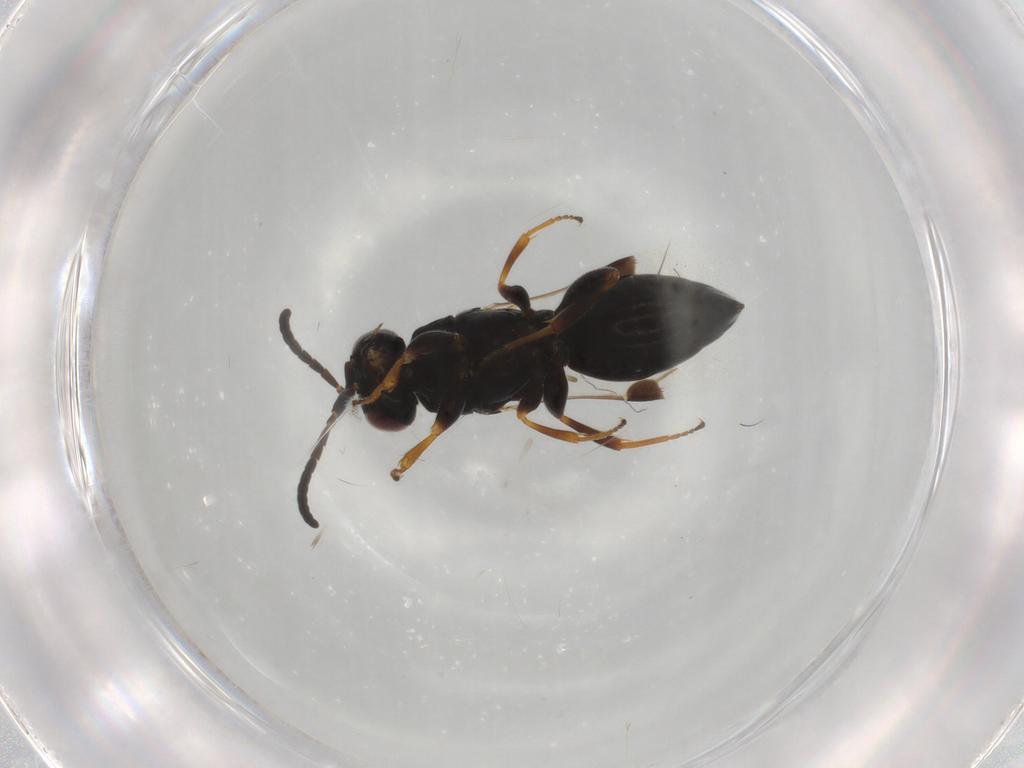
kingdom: Animalia
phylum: Arthropoda
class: Insecta
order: Hymenoptera
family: Megaspilidae
